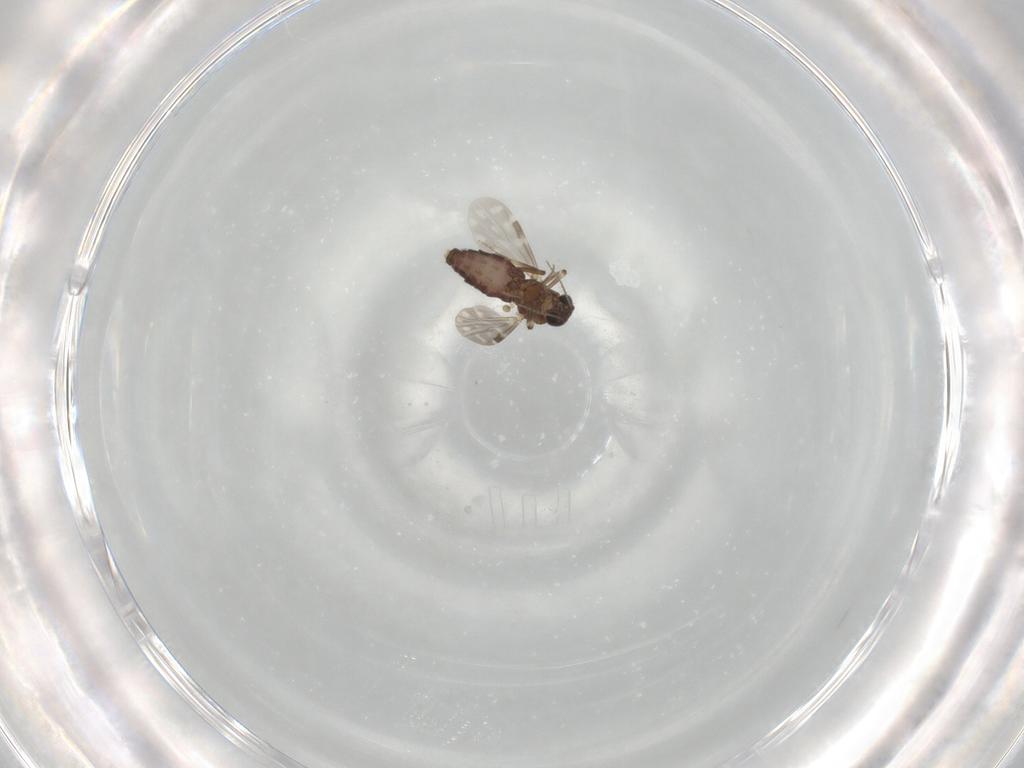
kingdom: Animalia
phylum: Arthropoda
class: Insecta
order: Diptera
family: Ceratopogonidae
